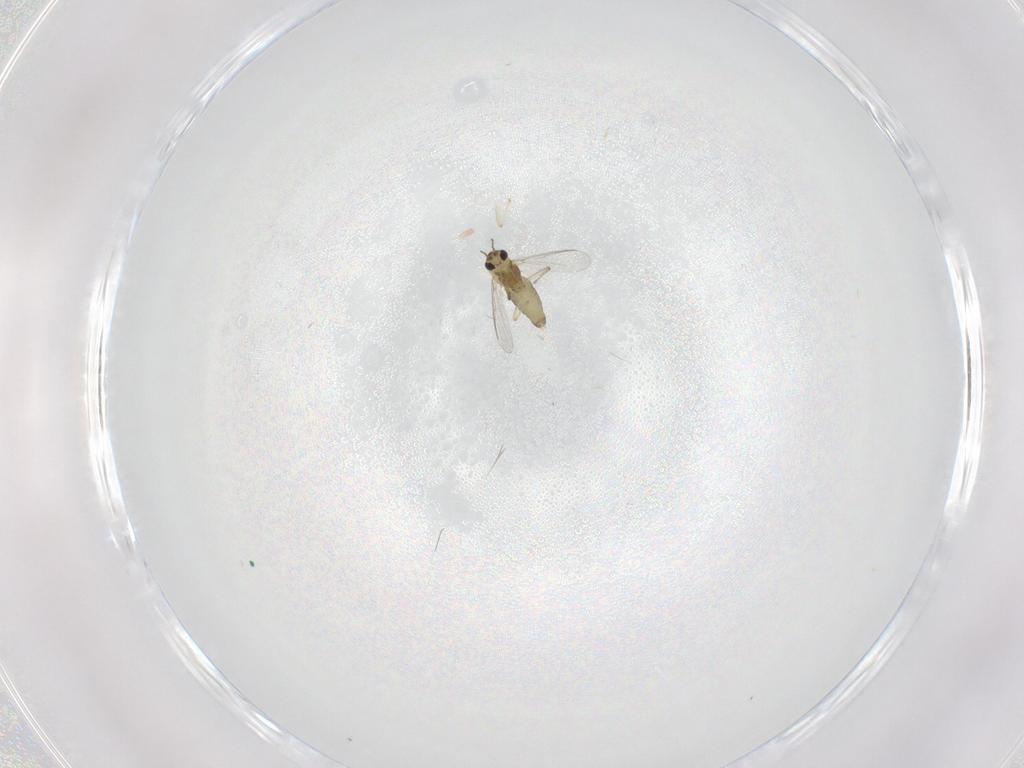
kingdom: Animalia
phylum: Arthropoda
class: Insecta
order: Diptera
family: Chironomidae
